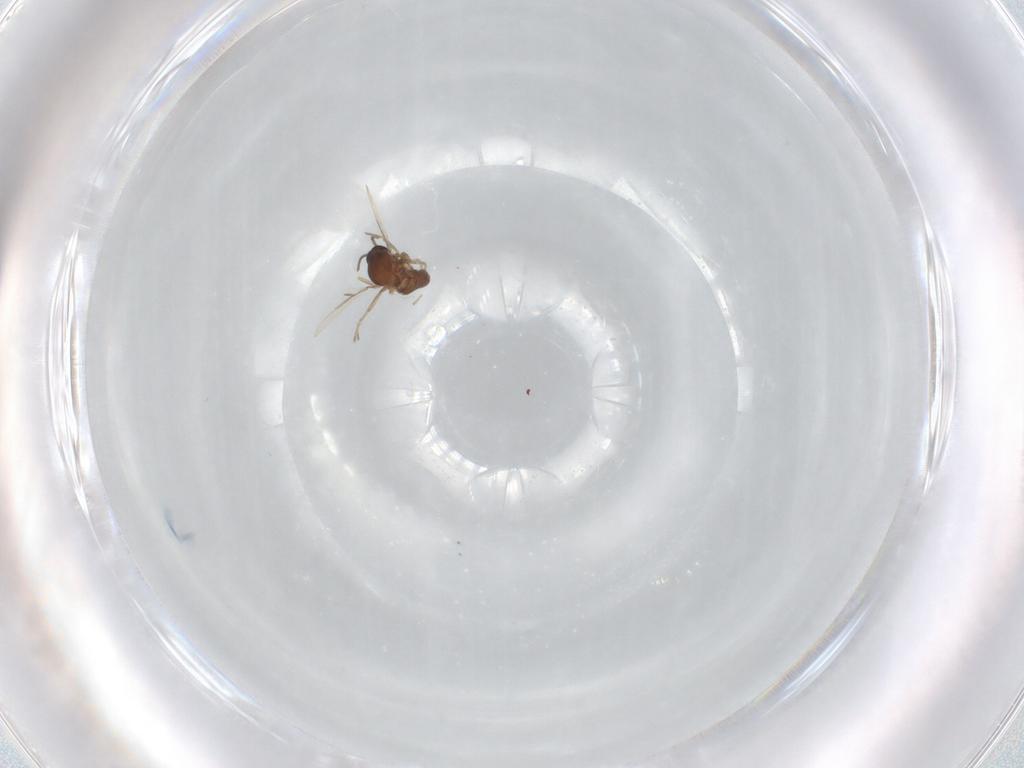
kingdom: Animalia
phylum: Arthropoda
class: Insecta
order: Diptera
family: Ceratopogonidae
